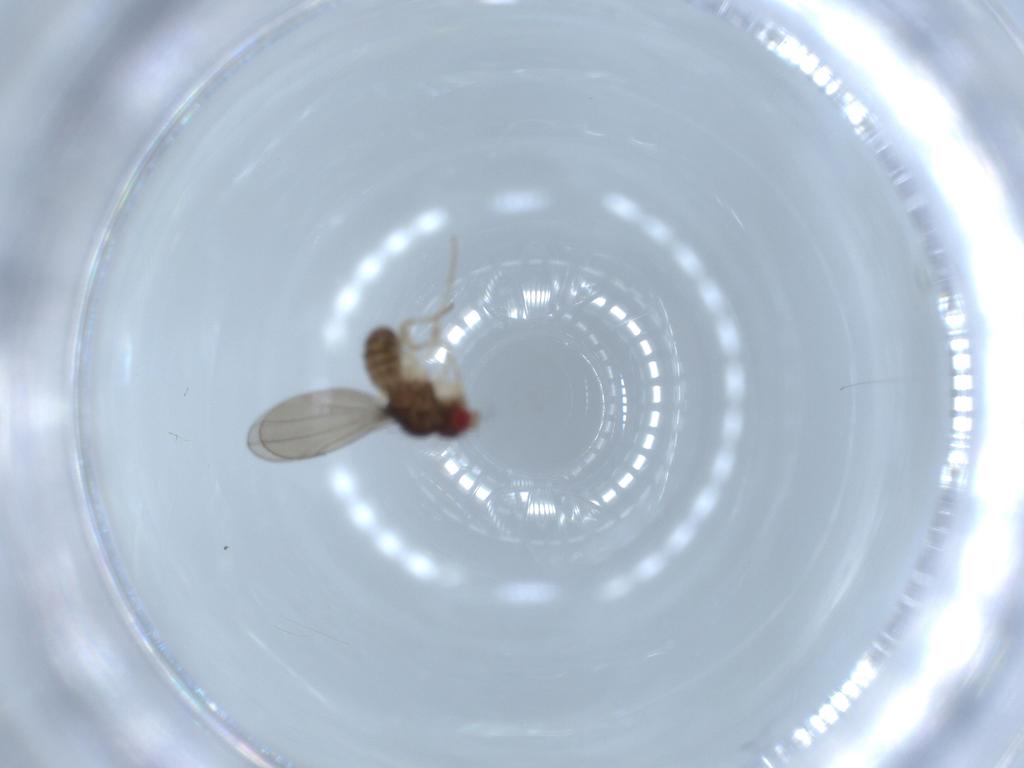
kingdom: Animalia
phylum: Arthropoda
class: Insecta
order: Diptera
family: Drosophilidae
